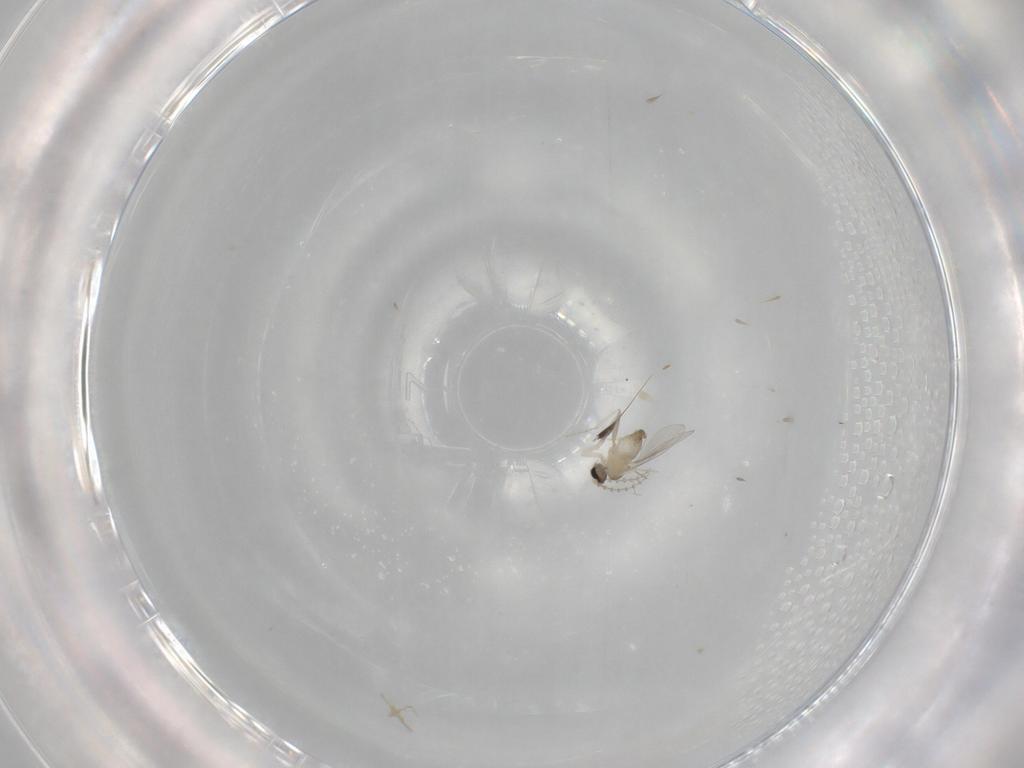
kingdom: Animalia
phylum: Arthropoda
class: Insecta
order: Diptera
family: Cecidomyiidae
